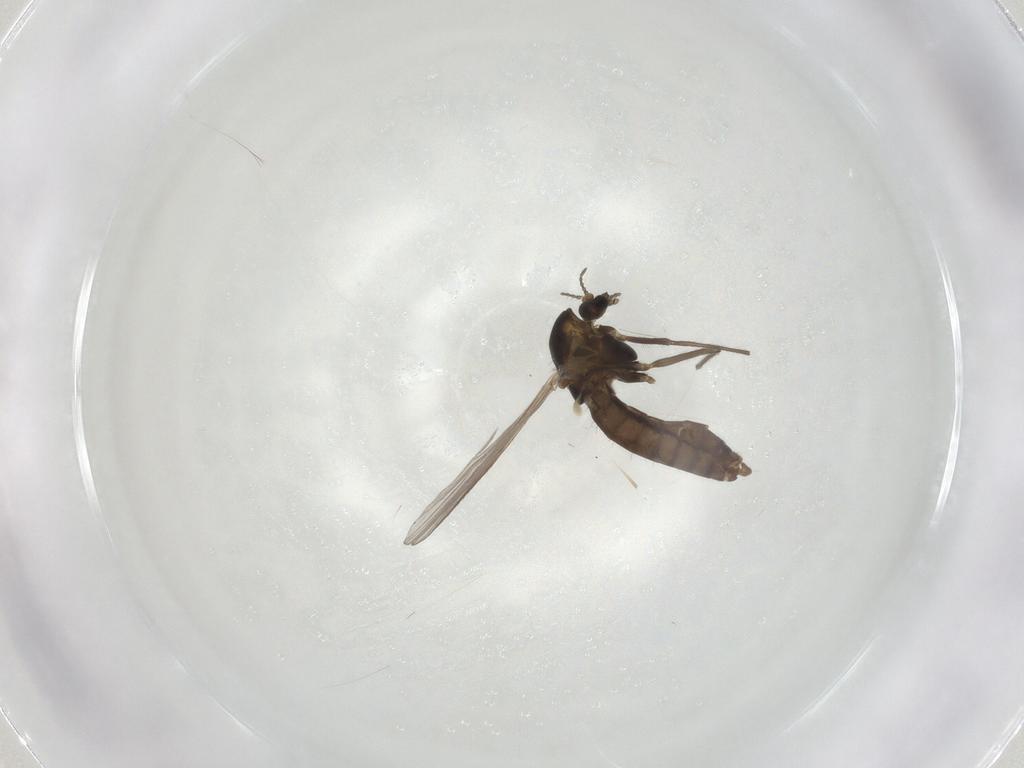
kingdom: Animalia
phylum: Arthropoda
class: Insecta
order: Diptera
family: Chironomidae
